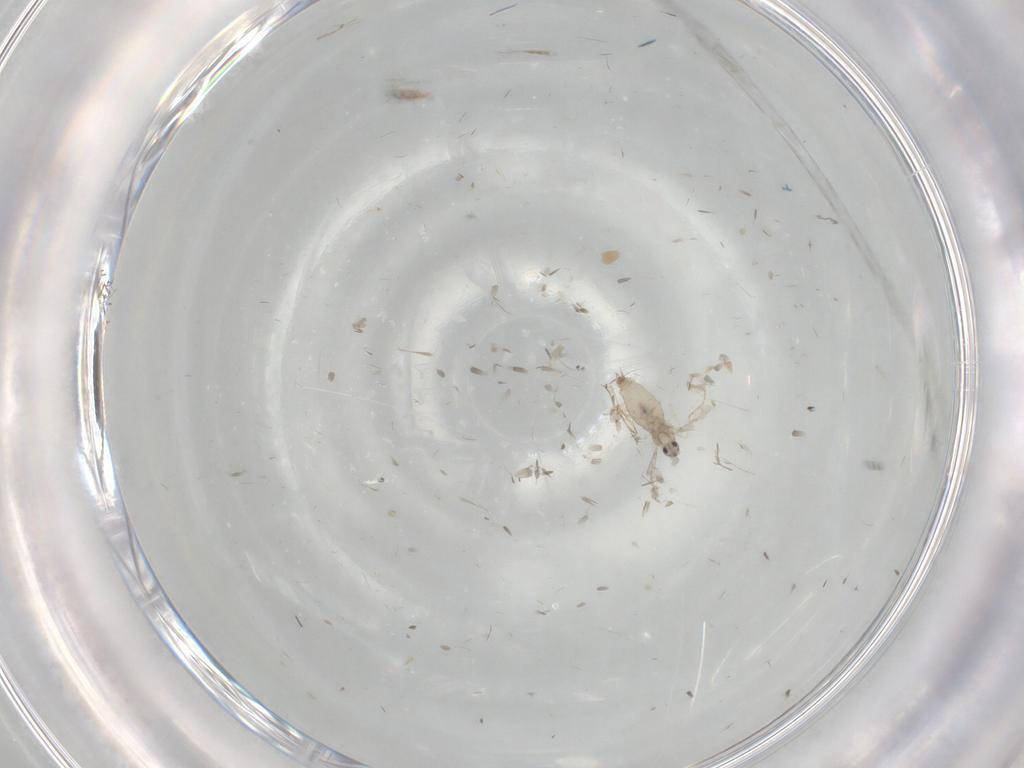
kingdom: Animalia
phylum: Arthropoda
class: Insecta
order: Diptera
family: Cecidomyiidae
